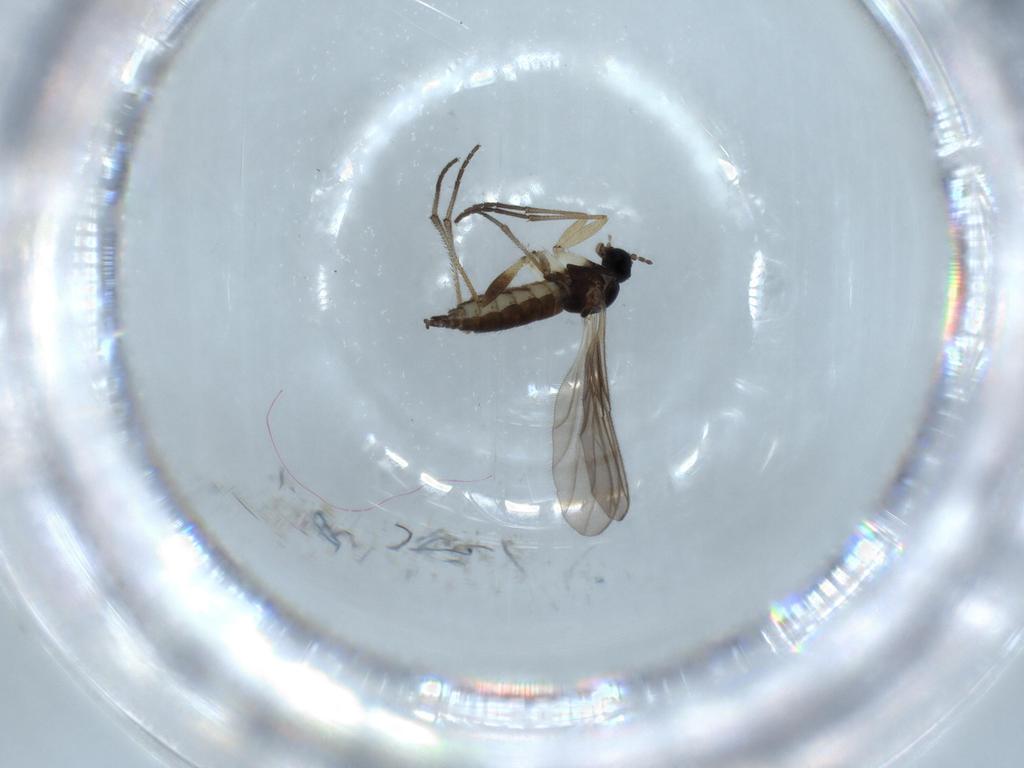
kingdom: Animalia
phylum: Arthropoda
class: Insecta
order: Diptera
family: Sciaridae
